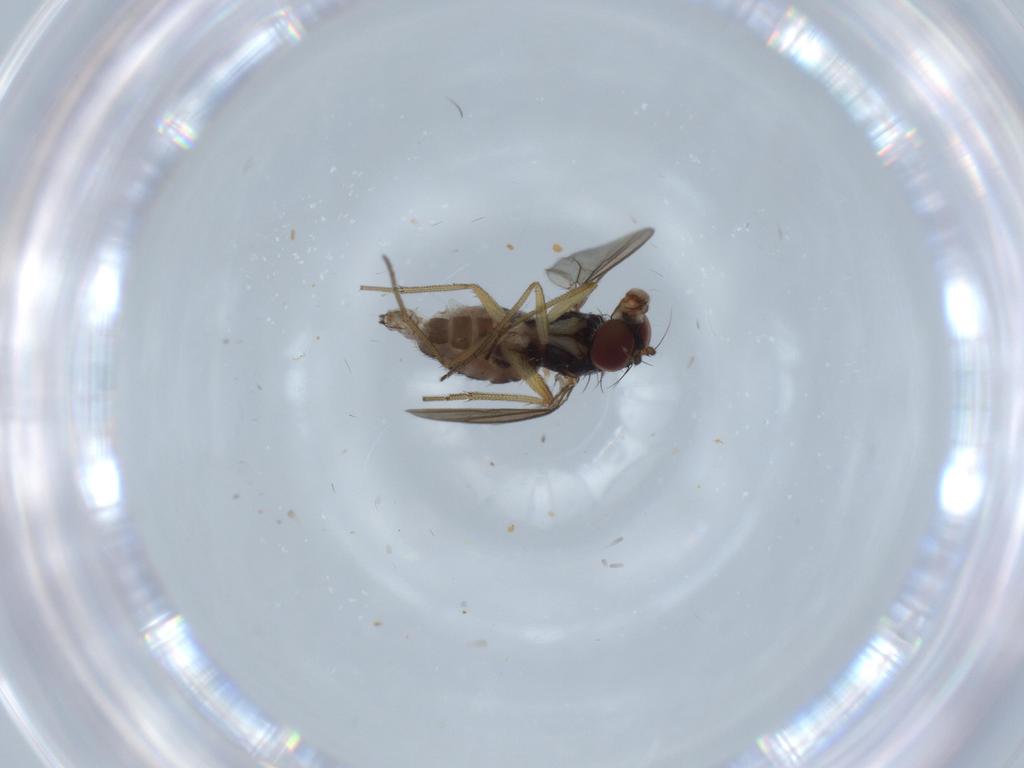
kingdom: Animalia
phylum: Arthropoda
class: Insecta
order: Diptera
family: Dolichopodidae
